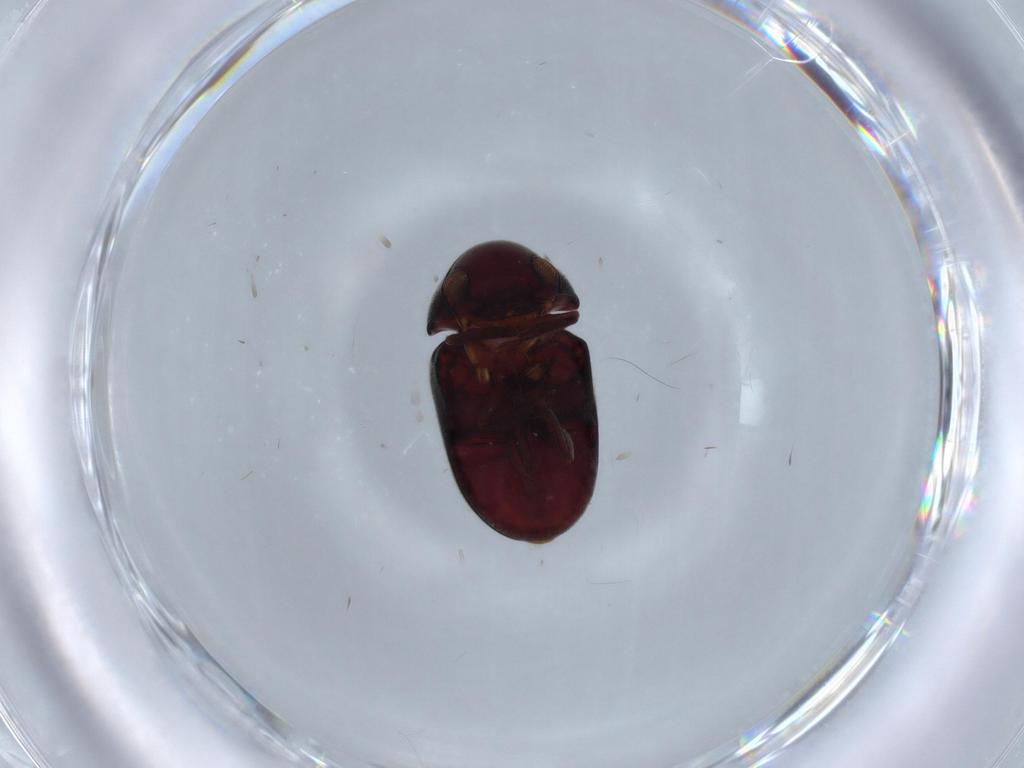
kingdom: Animalia
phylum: Arthropoda
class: Insecta
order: Coleoptera
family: Ptinidae
